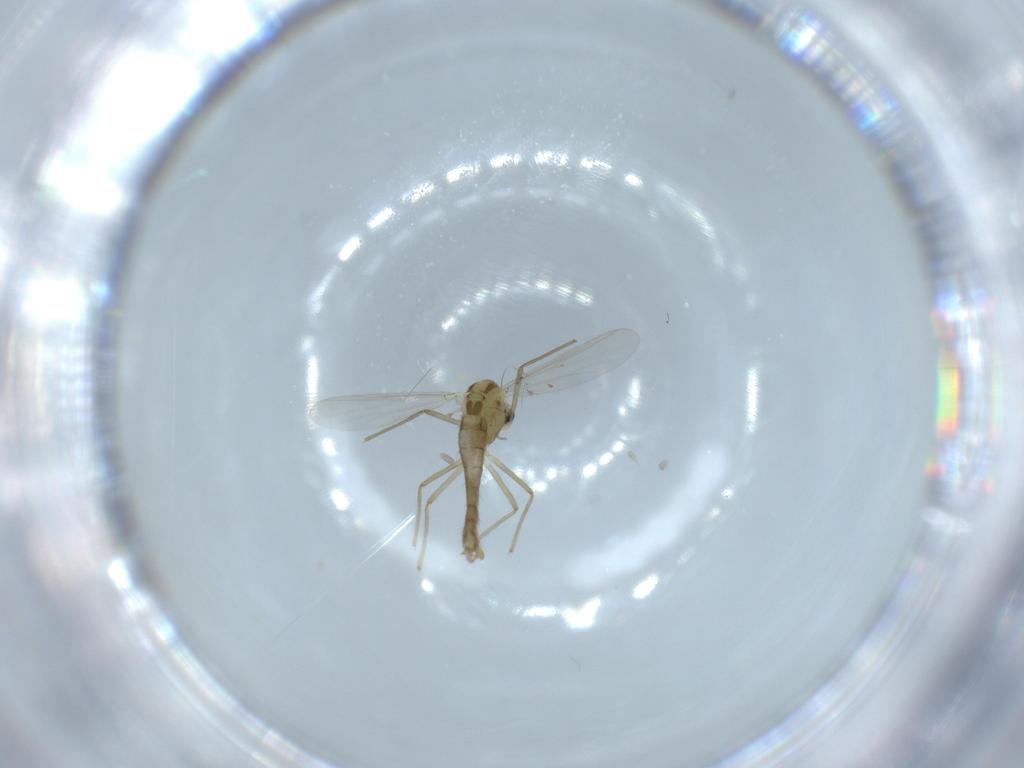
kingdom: Animalia
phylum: Arthropoda
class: Insecta
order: Diptera
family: Chironomidae
